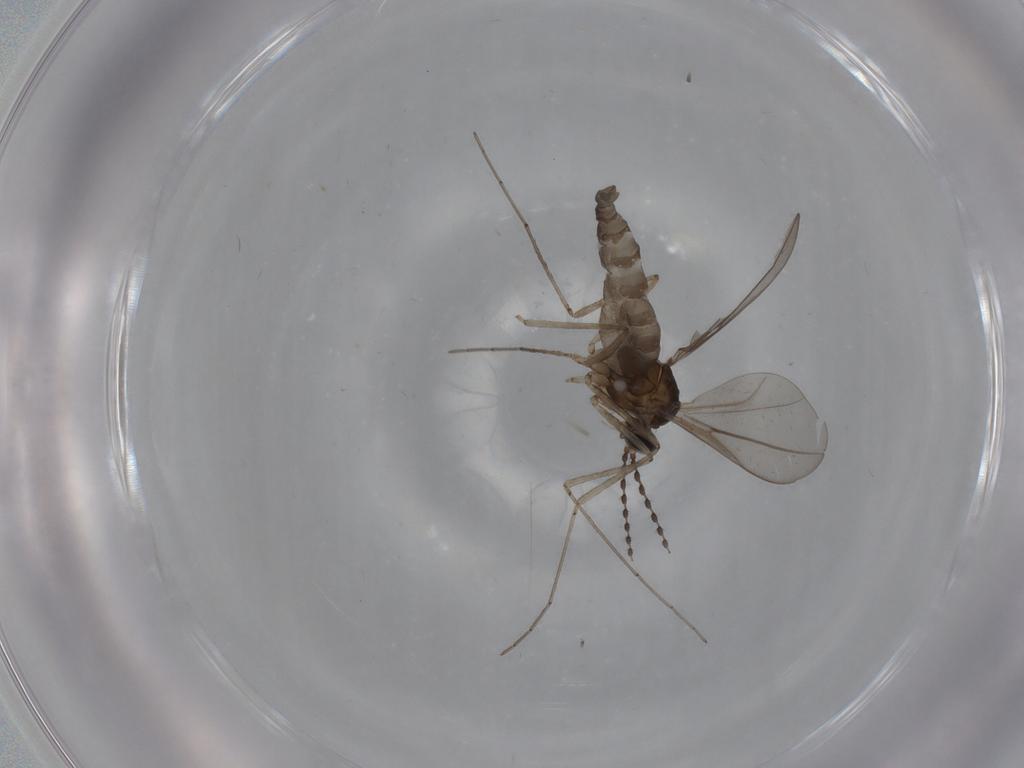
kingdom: Animalia
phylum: Arthropoda
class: Insecta
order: Diptera
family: Cecidomyiidae
